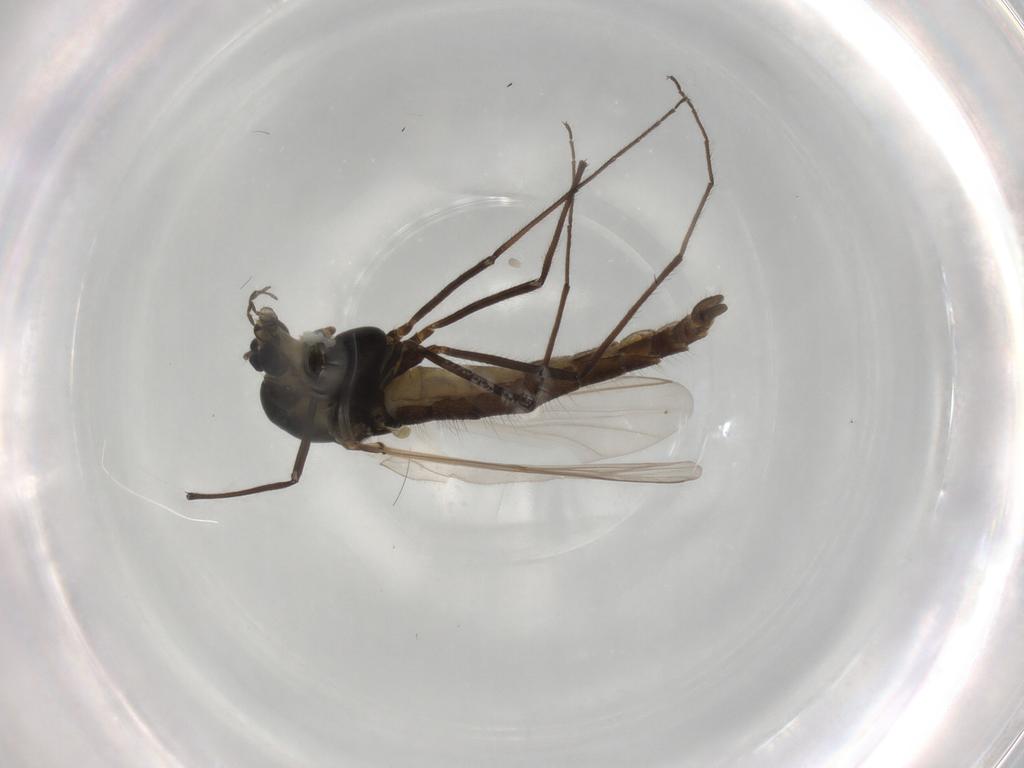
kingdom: Animalia
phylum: Arthropoda
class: Insecta
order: Diptera
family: Chironomidae
